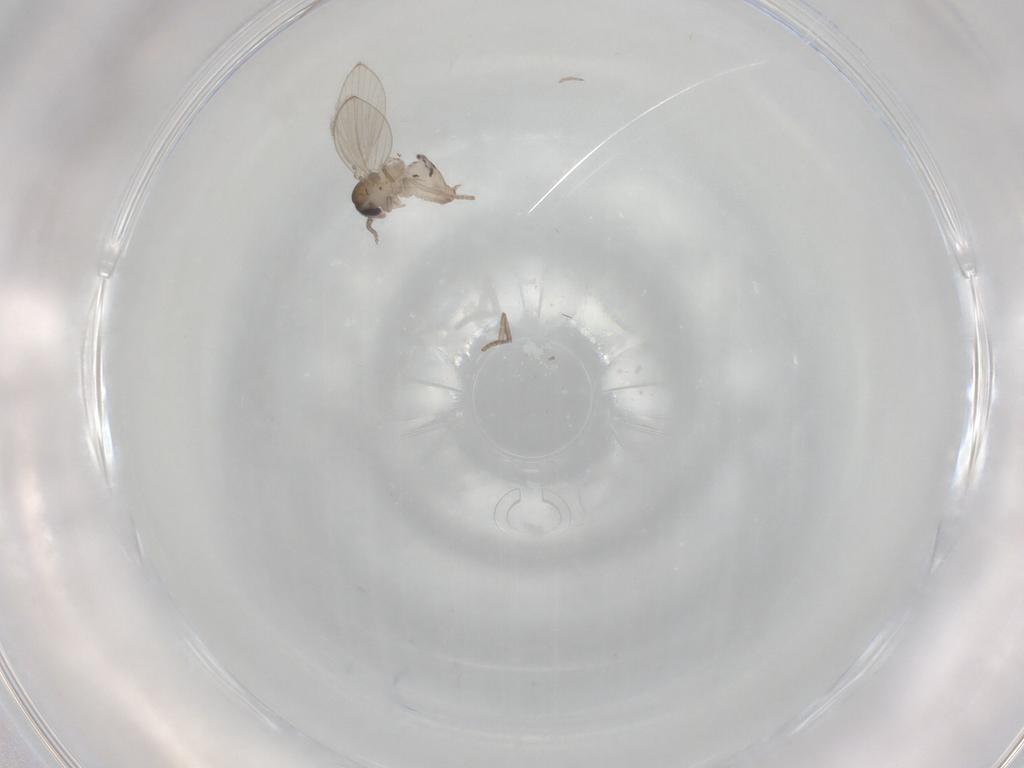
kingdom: Animalia
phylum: Arthropoda
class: Insecta
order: Diptera
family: Psychodidae
